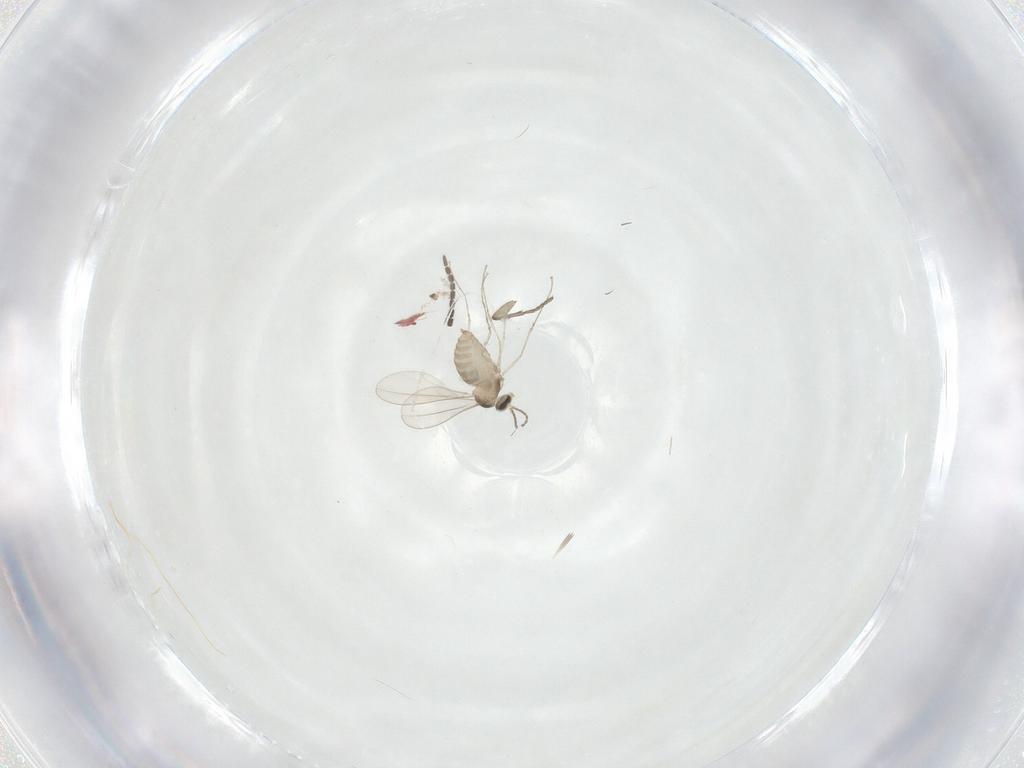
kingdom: Animalia
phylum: Arthropoda
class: Insecta
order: Diptera
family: Cecidomyiidae
